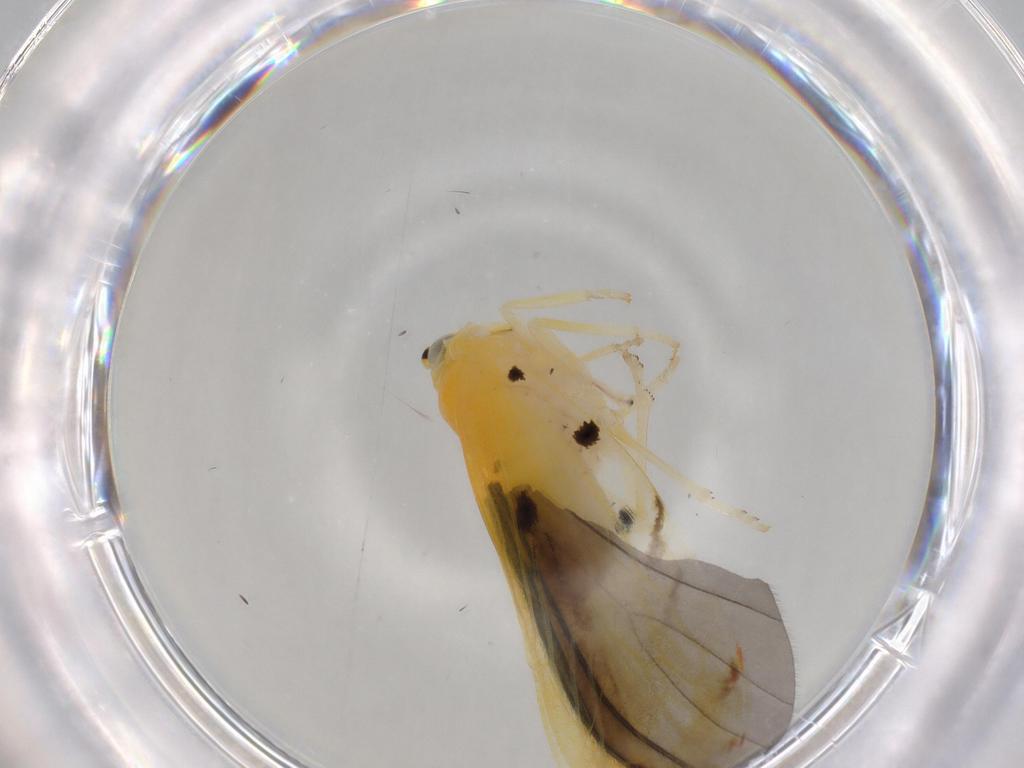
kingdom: Animalia
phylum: Arthropoda
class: Insecta
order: Hemiptera
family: Derbidae
